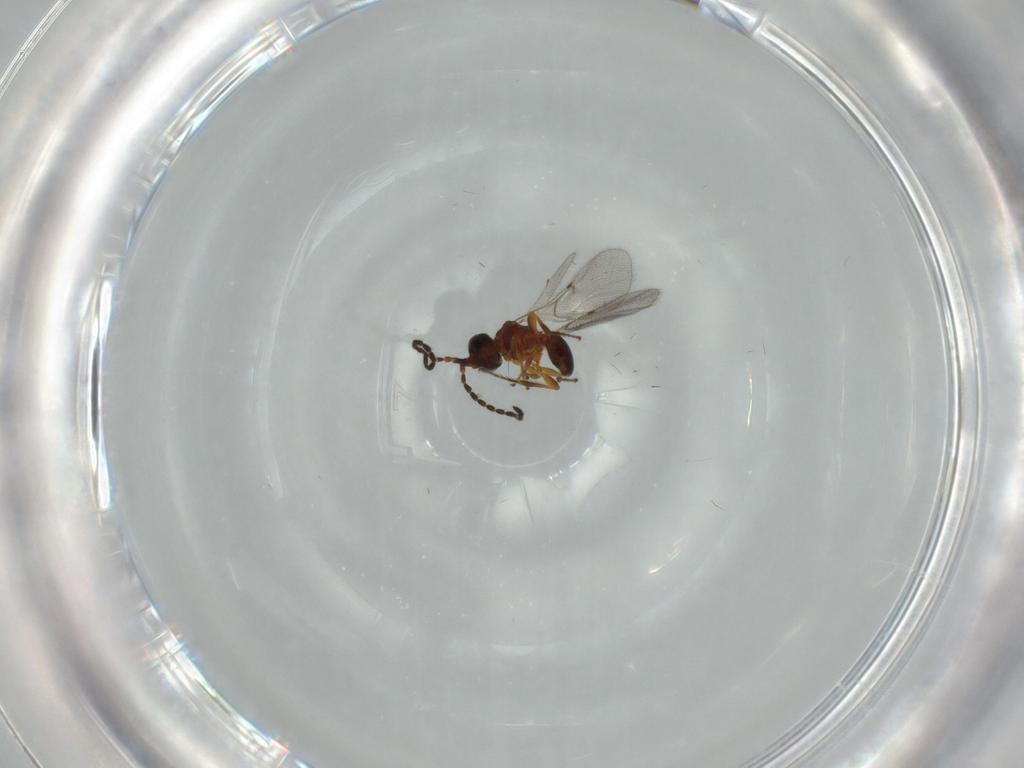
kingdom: Animalia
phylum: Arthropoda
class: Insecta
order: Hymenoptera
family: Diapriidae
